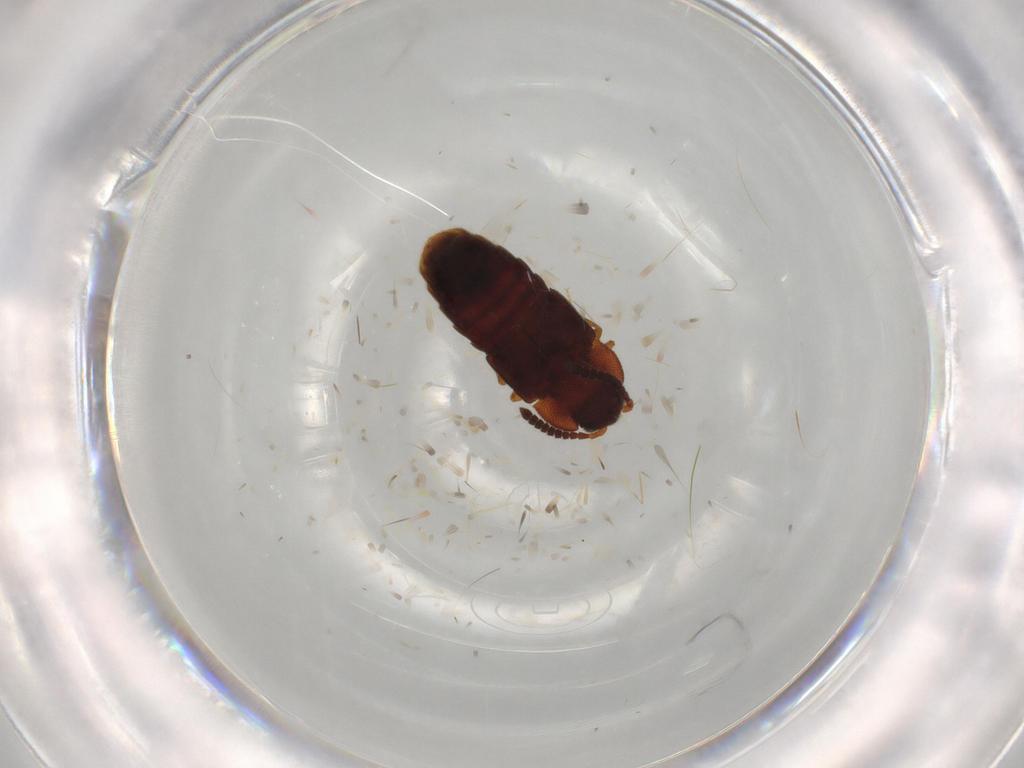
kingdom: Animalia
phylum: Arthropoda
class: Insecta
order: Coleoptera
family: Staphylinidae
